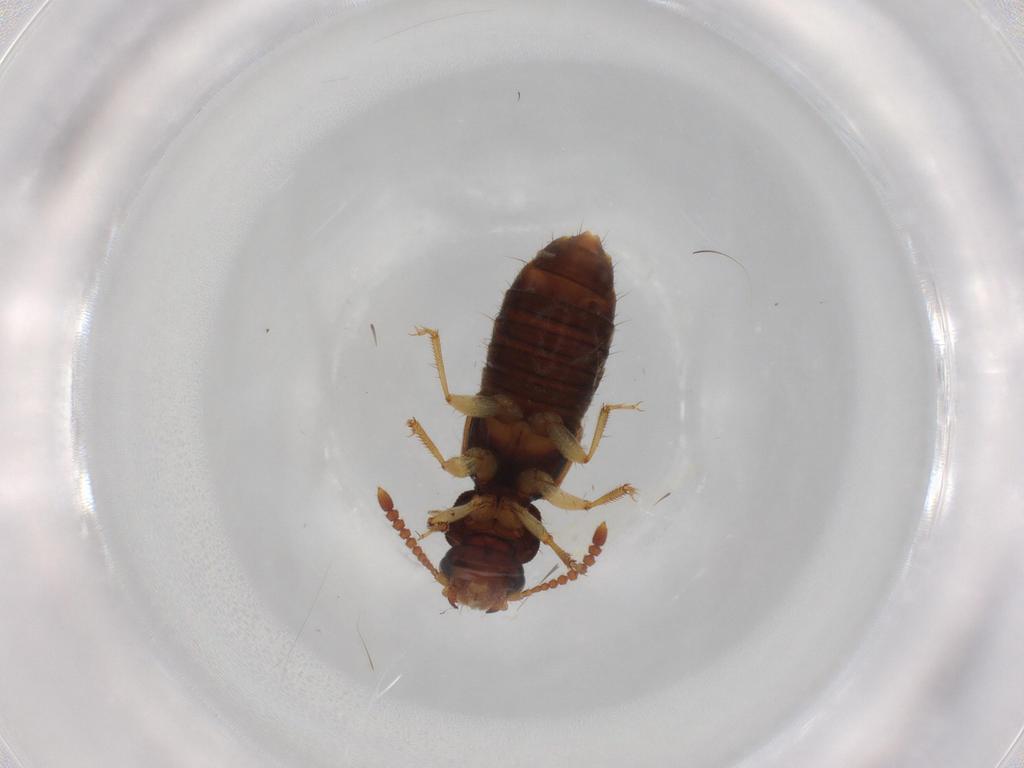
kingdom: Animalia
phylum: Arthropoda
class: Insecta
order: Coleoptera
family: Staphylinidae
